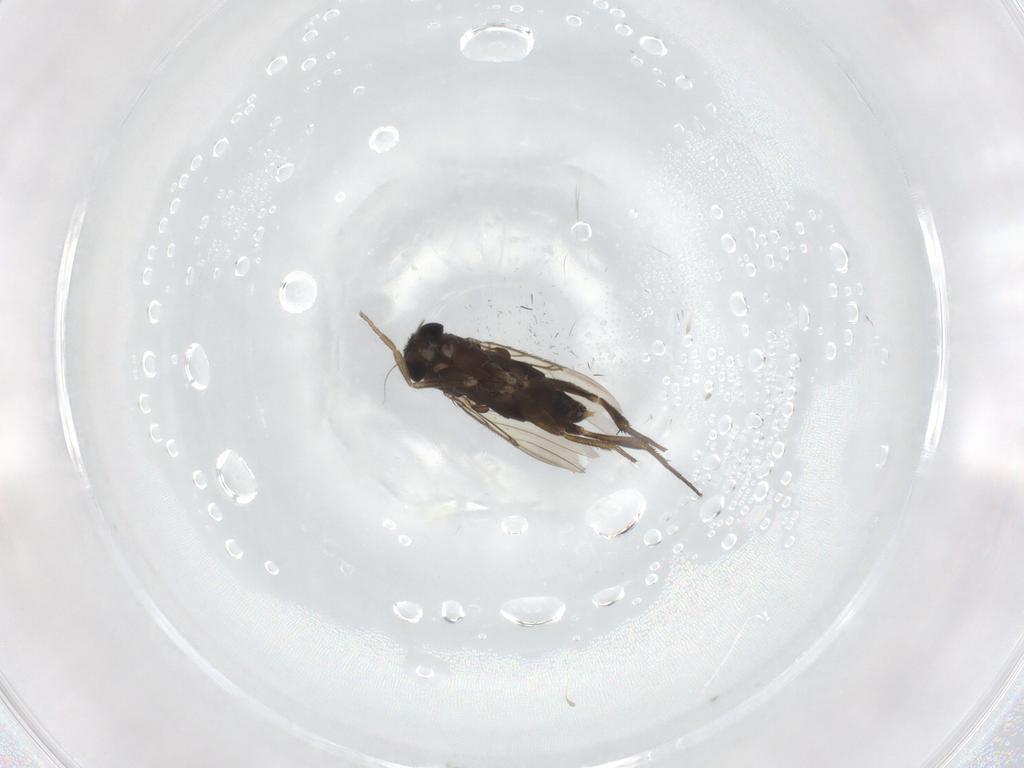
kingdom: Animalia
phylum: Arthropoda
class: Insecta
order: Diptera
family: Phoridae
